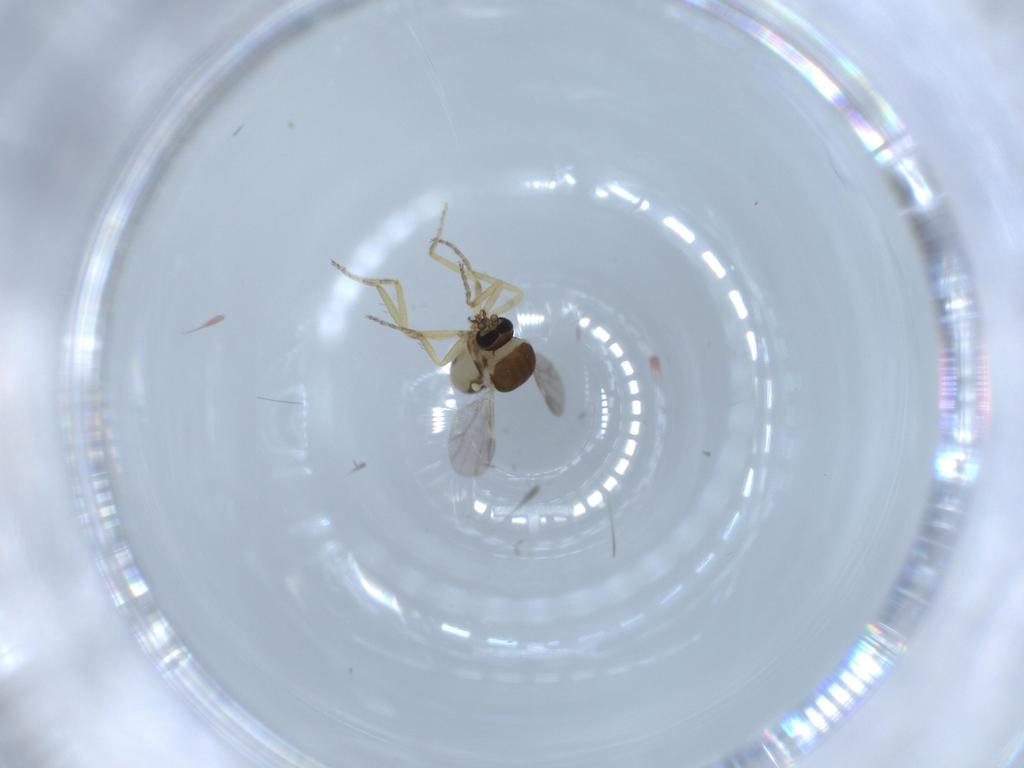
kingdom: Animalia
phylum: Arthropoda
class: Insecta
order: Diptera
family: Ceratopogonidae
